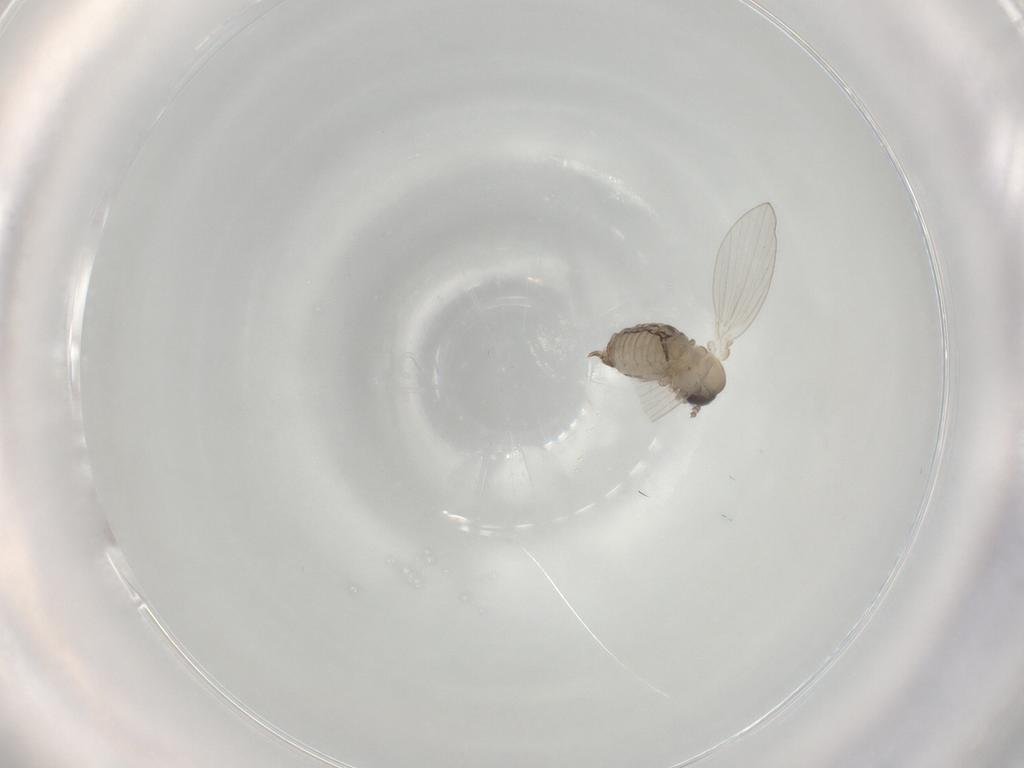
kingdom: Animalia
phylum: Arthropoda
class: Insecta
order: Diptera
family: Psychodidae
